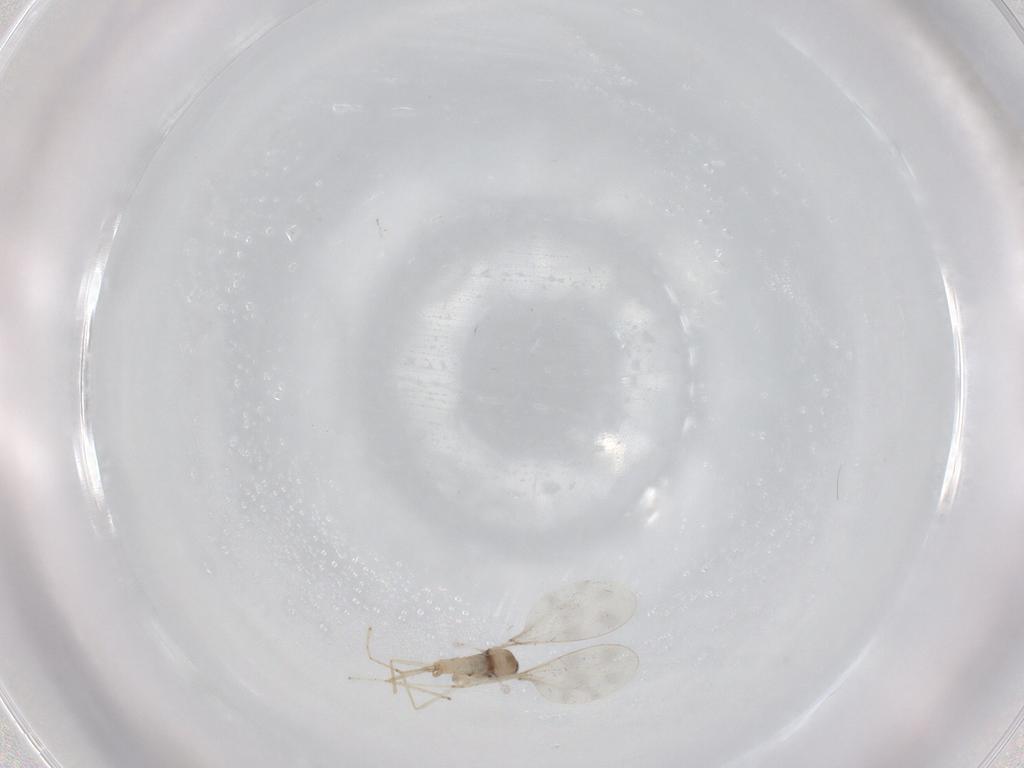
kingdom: Animalia
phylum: Arthropoda
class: Insecta
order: Diptera
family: Cecidomyiidae
